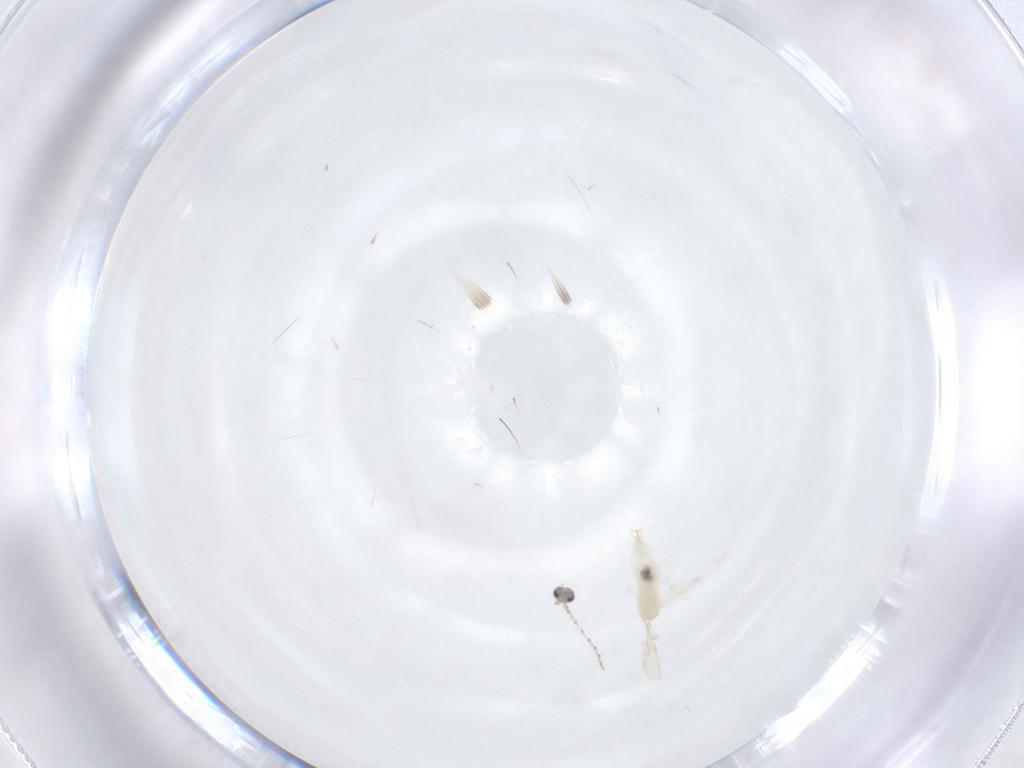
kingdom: Animalia
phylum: Arthropoda
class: Insecta
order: Diptera
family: Cecidomyiidae
